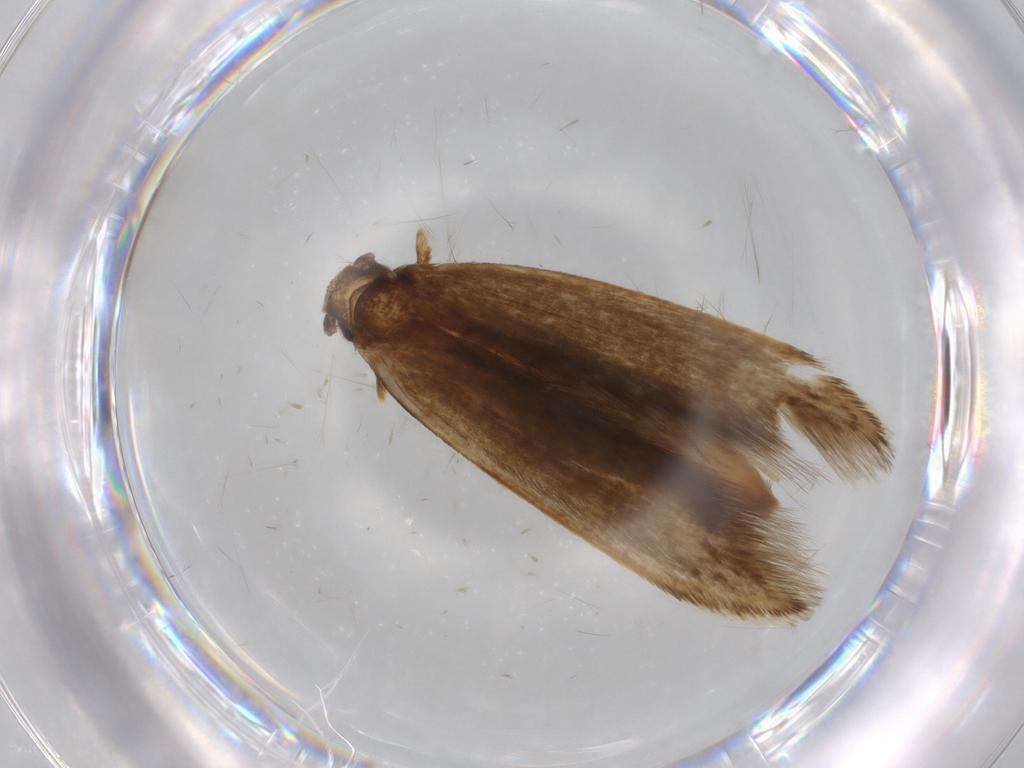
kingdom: Animalia
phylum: Arthropoda
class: Insecta
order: Lepidoptera
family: Tineidae
